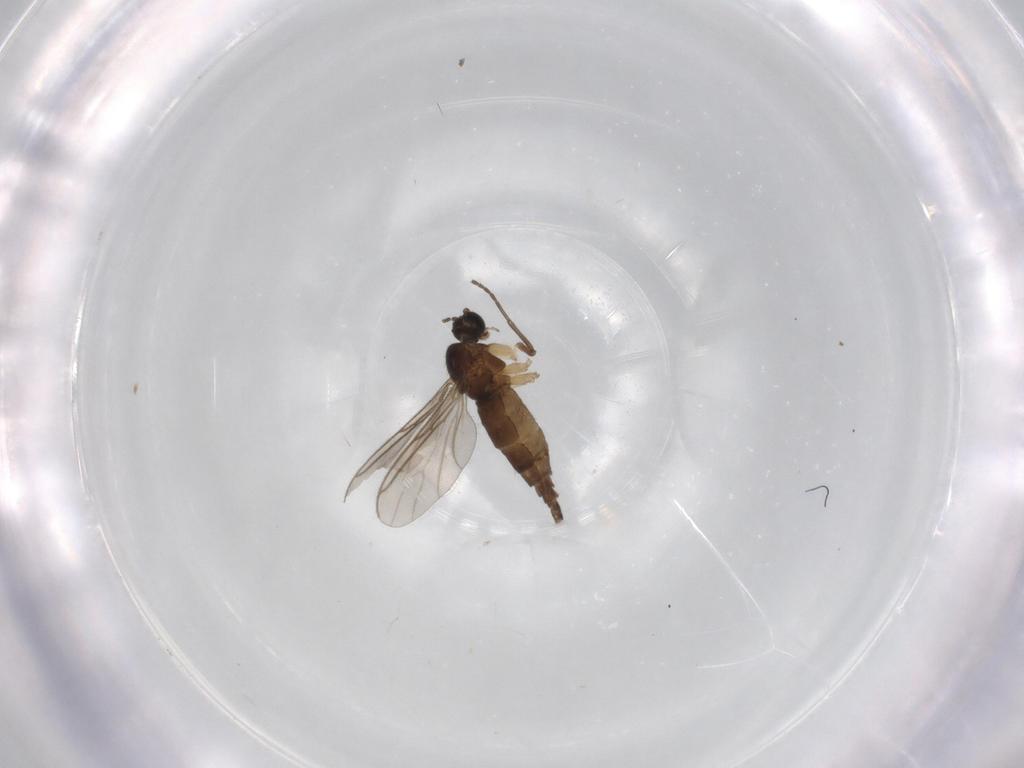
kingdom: Animalia
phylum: Arthropoda
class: Insecta
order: Diptera
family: Sciaridae
